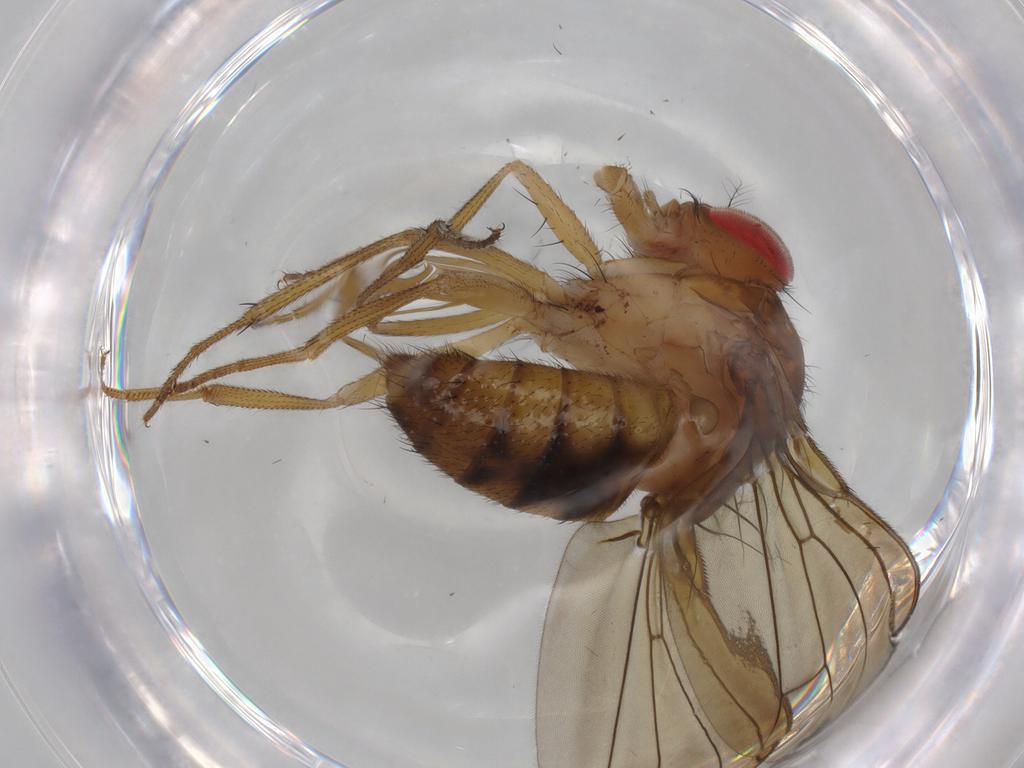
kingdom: Animalia
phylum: Arthropoda
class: Insecta
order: Diptera
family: Drosophilidae
